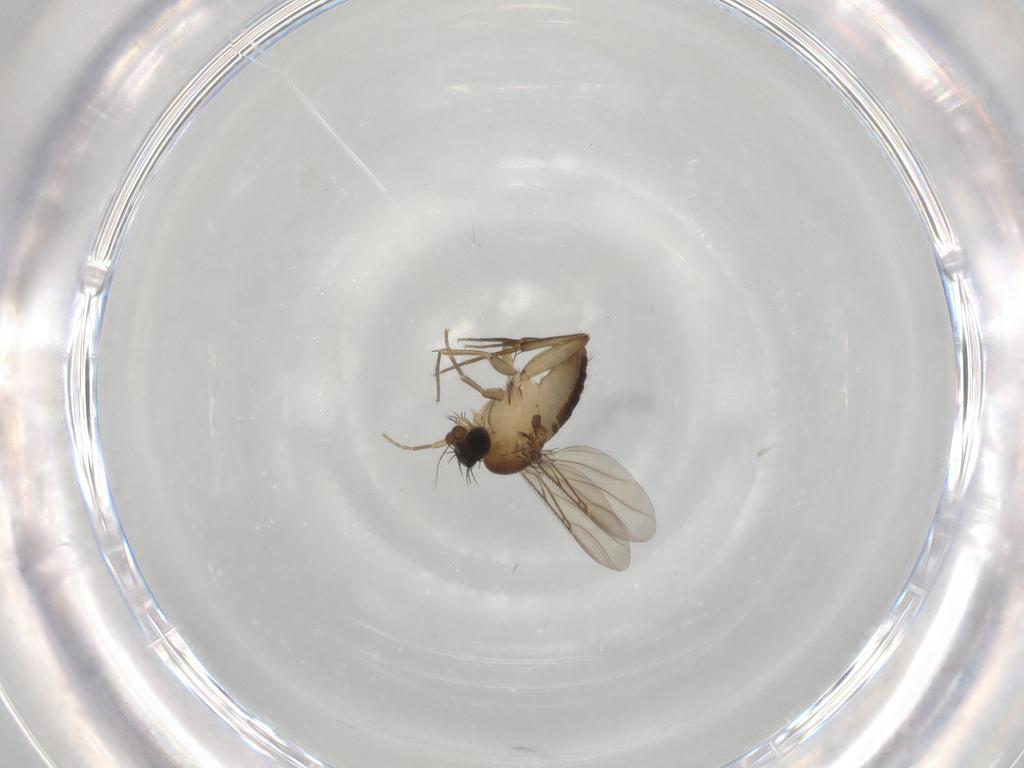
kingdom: Animalia
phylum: Arthropoda
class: Insecta
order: Diptera
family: Phoridae
